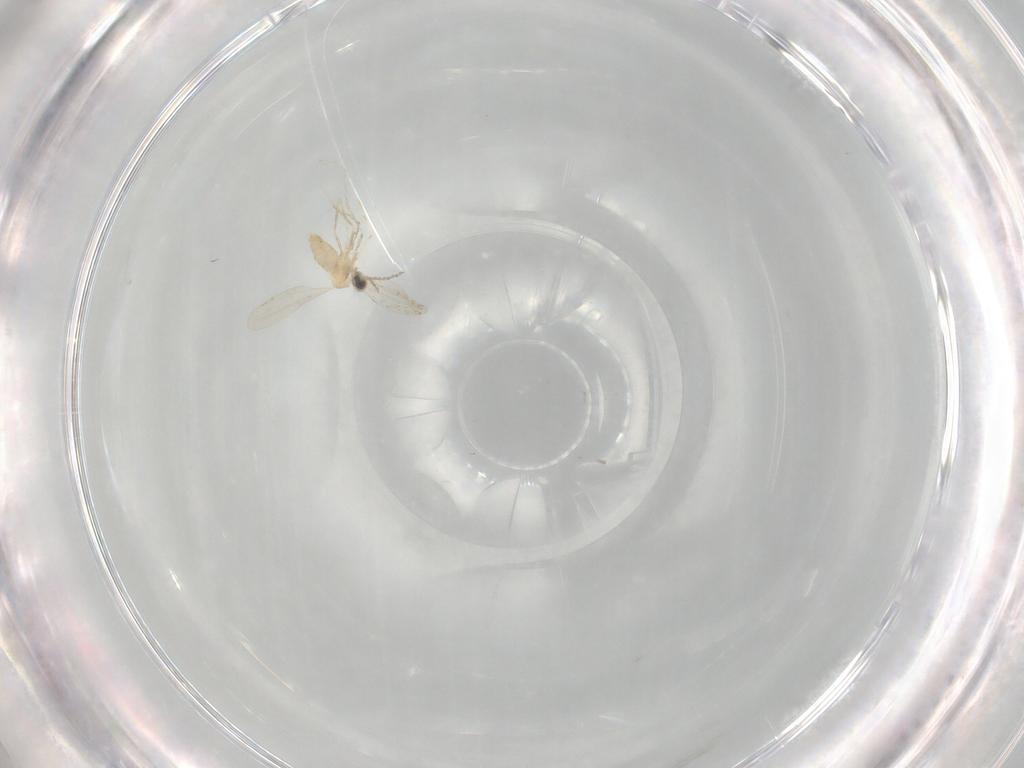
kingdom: Animalia
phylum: Arthropoda
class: Insecta
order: Diptera
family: Cecidomyiidae
